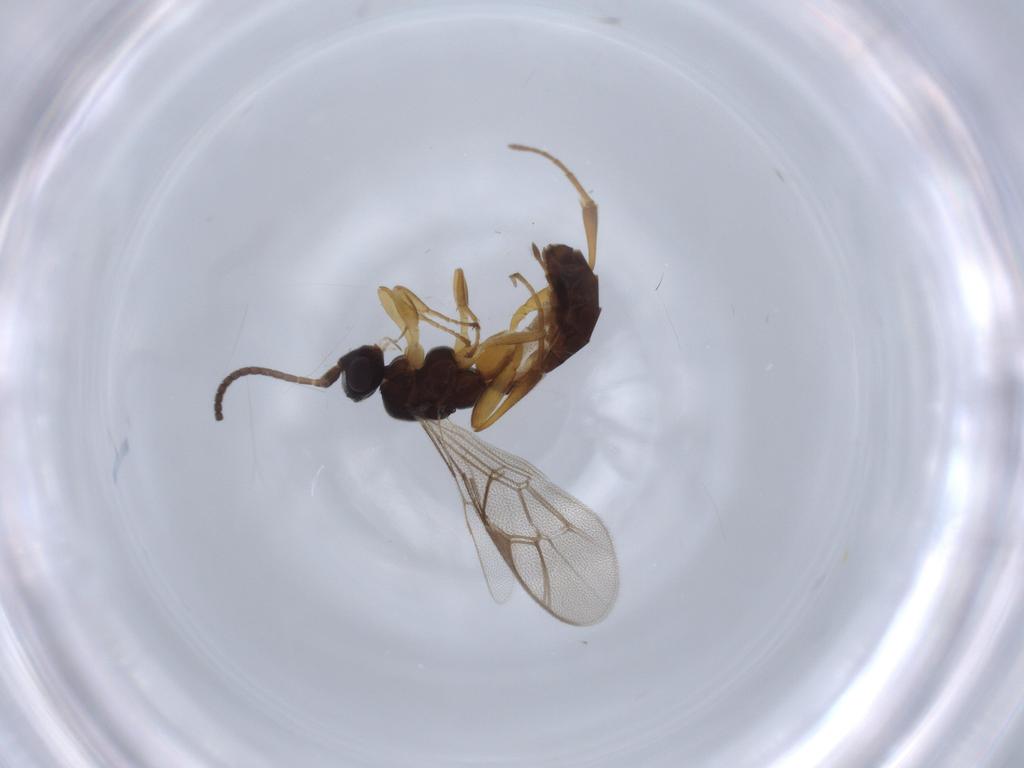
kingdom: Animalia
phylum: Arthropoda
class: Insecta
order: Hymenoptera
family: Ichneumonidae
